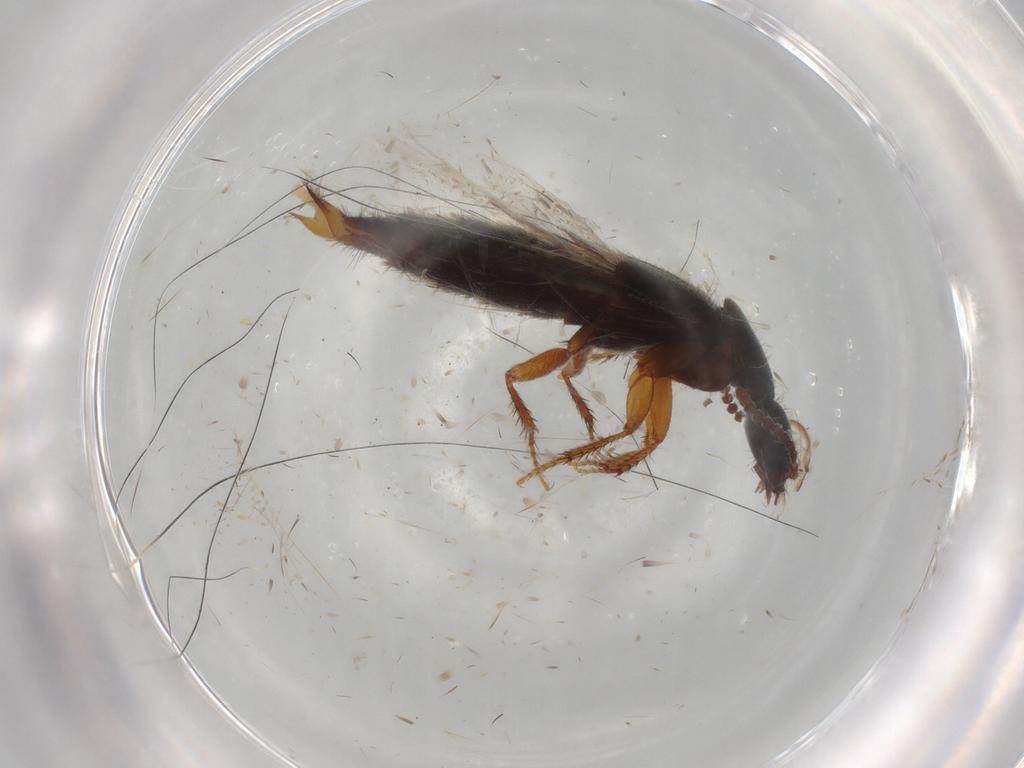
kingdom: Animalia
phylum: Arthropoda
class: Insecta
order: Coleoptera
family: Staphylinidae
